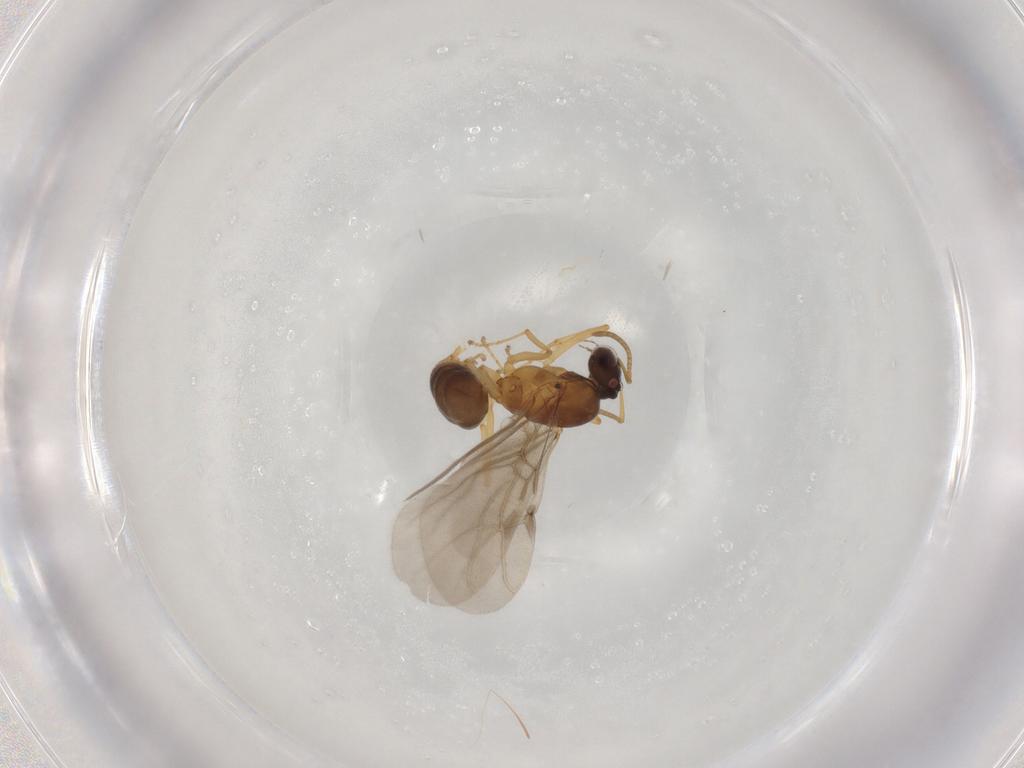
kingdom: Animalia
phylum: Arthropoda
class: Insecta
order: Hymenoptera
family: Formicidae
